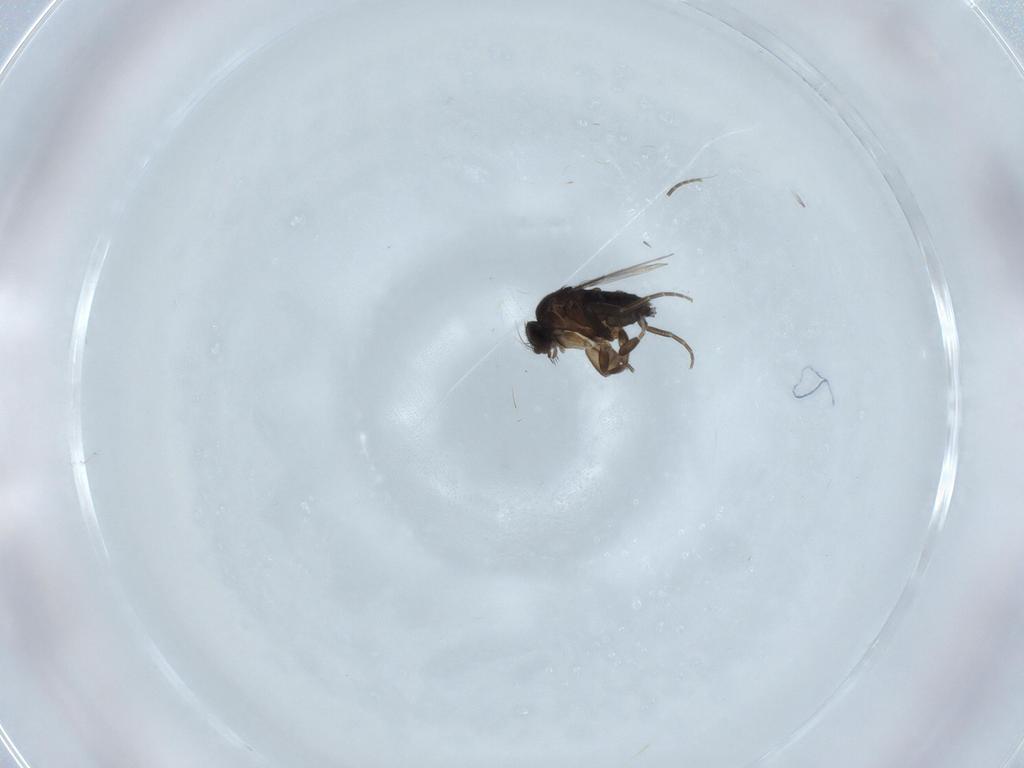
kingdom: Animalia
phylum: Arthropoda
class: Insecta
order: Diptera
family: Phoridae
